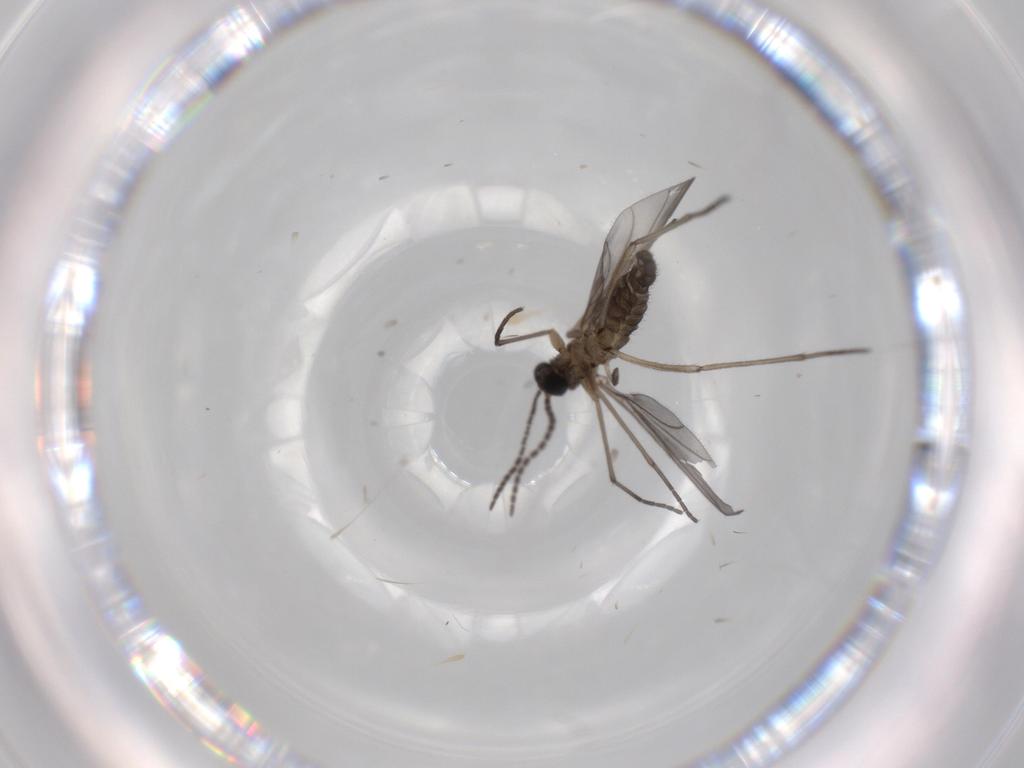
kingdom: Animalia
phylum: Arthropoda
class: Insecta
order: Diptera
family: Sciaridae
